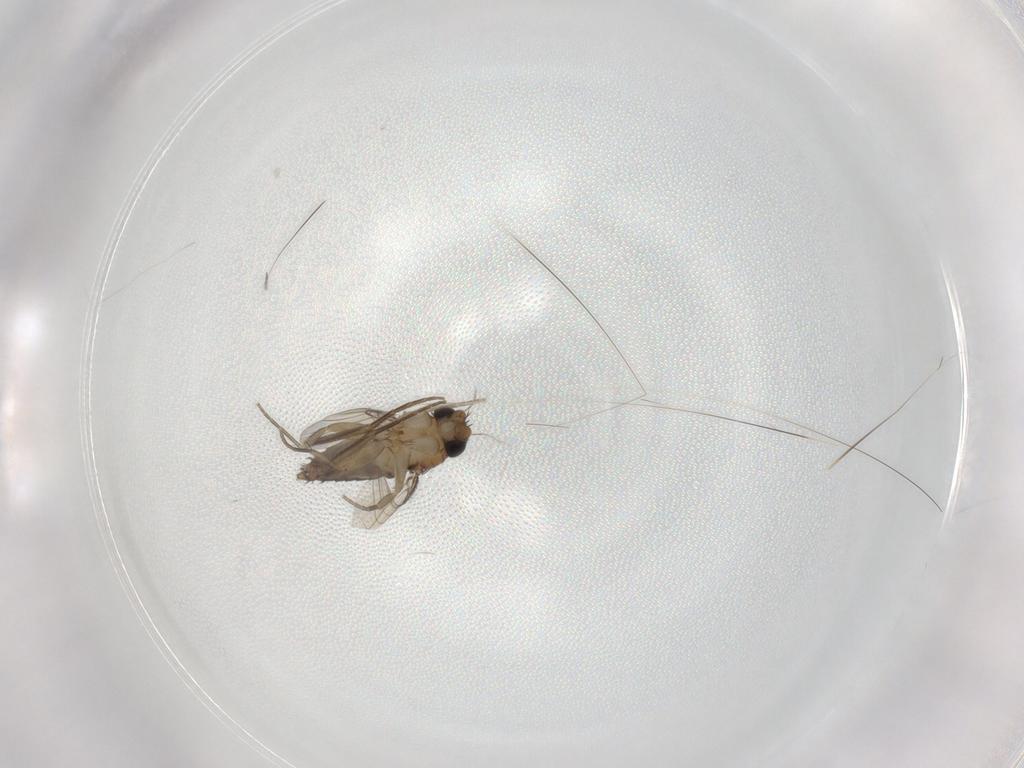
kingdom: Animalia
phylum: Arthropoda
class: Insecta
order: Diptera
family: Phoridae
